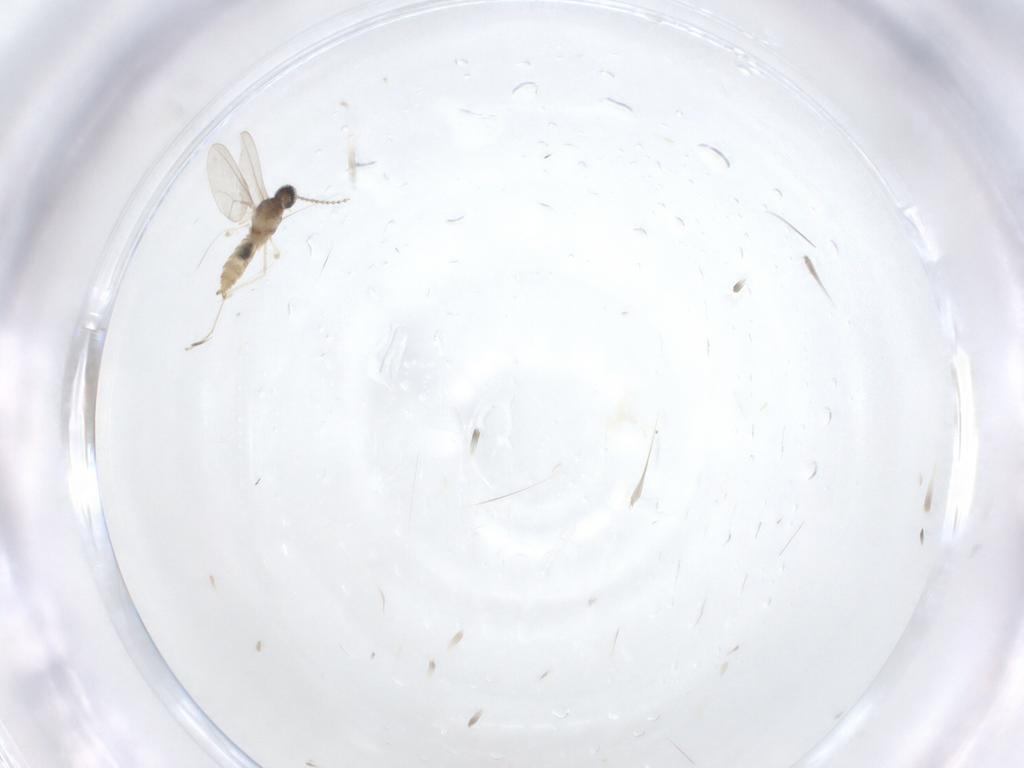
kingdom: Animalia
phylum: Arthropoda
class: Insecta
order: Diptera
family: Cecidomyiidae
